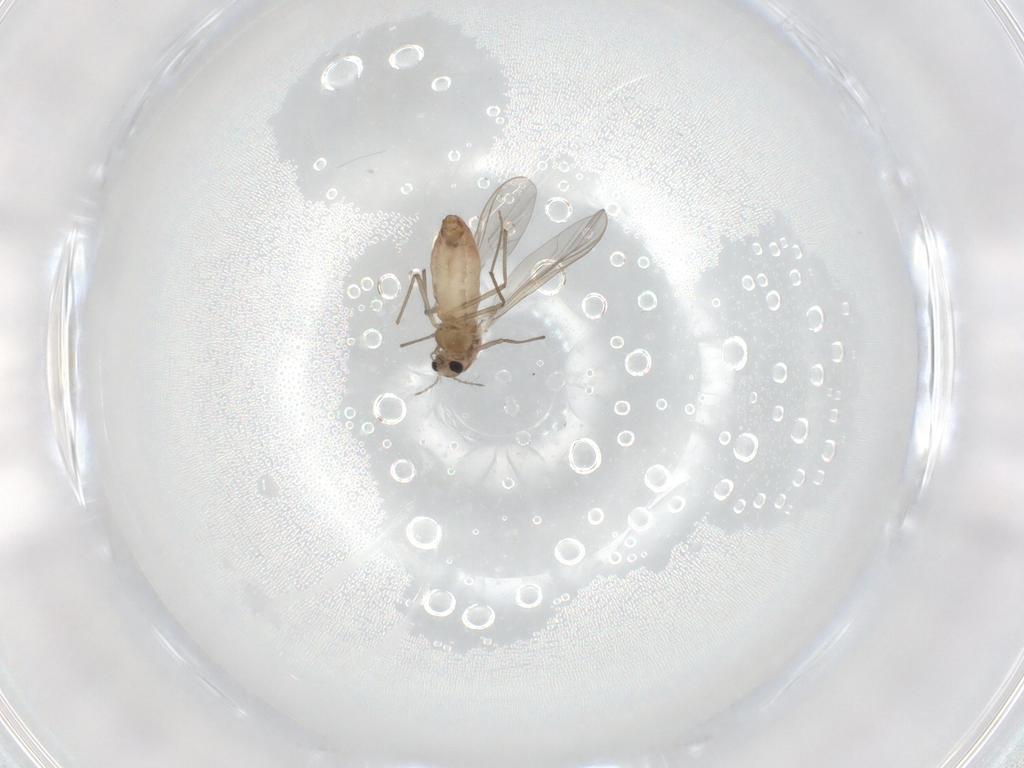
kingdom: Animalia
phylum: Arthropoda
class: Insecta
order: Diptera
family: Chironomidae
